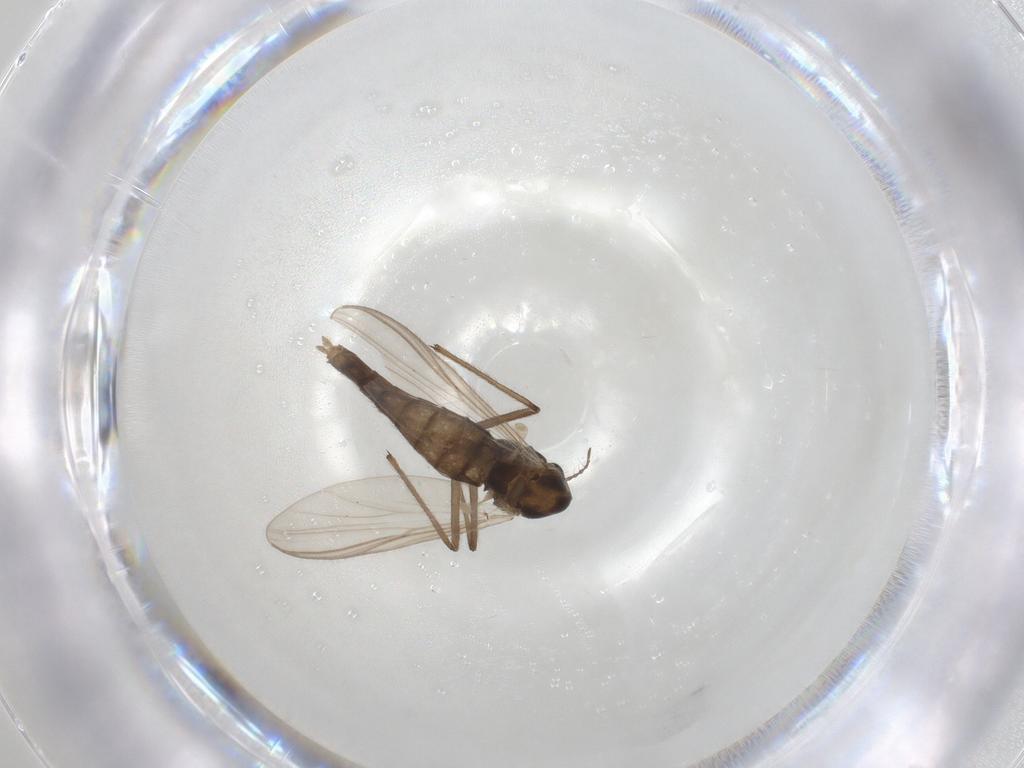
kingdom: Animalia
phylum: Arthropoda
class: Insecta
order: Diptera
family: Chironomidae
